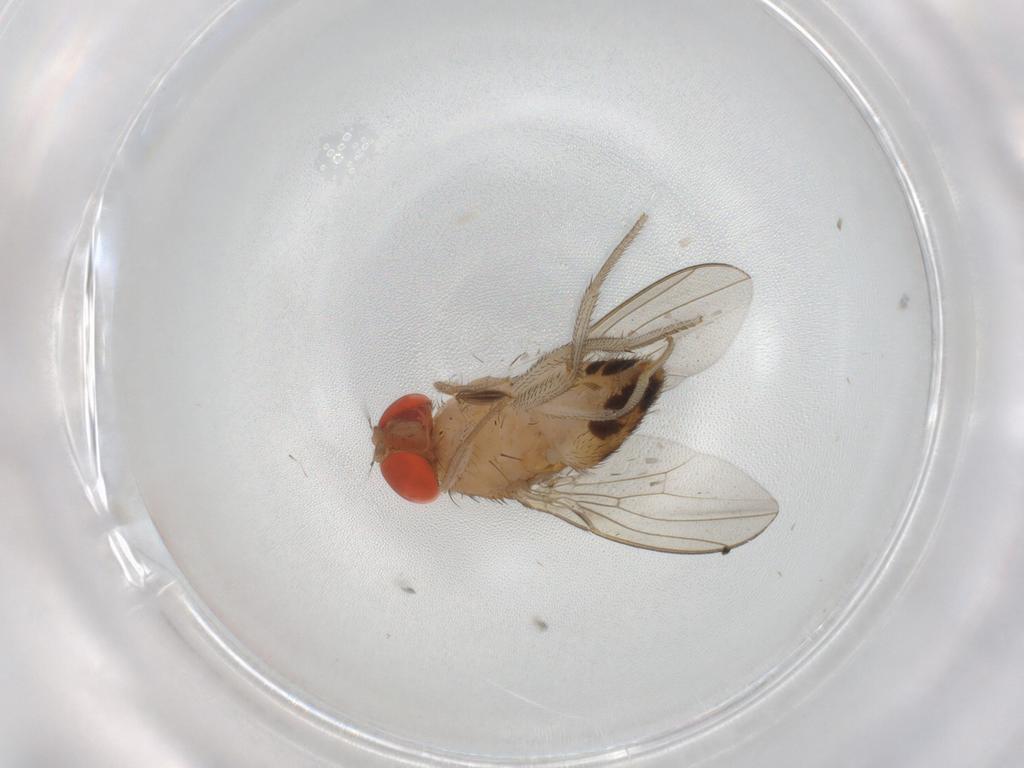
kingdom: Animalia
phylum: Arthropoda
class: Insecta
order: Diptera
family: Drosophilidae
